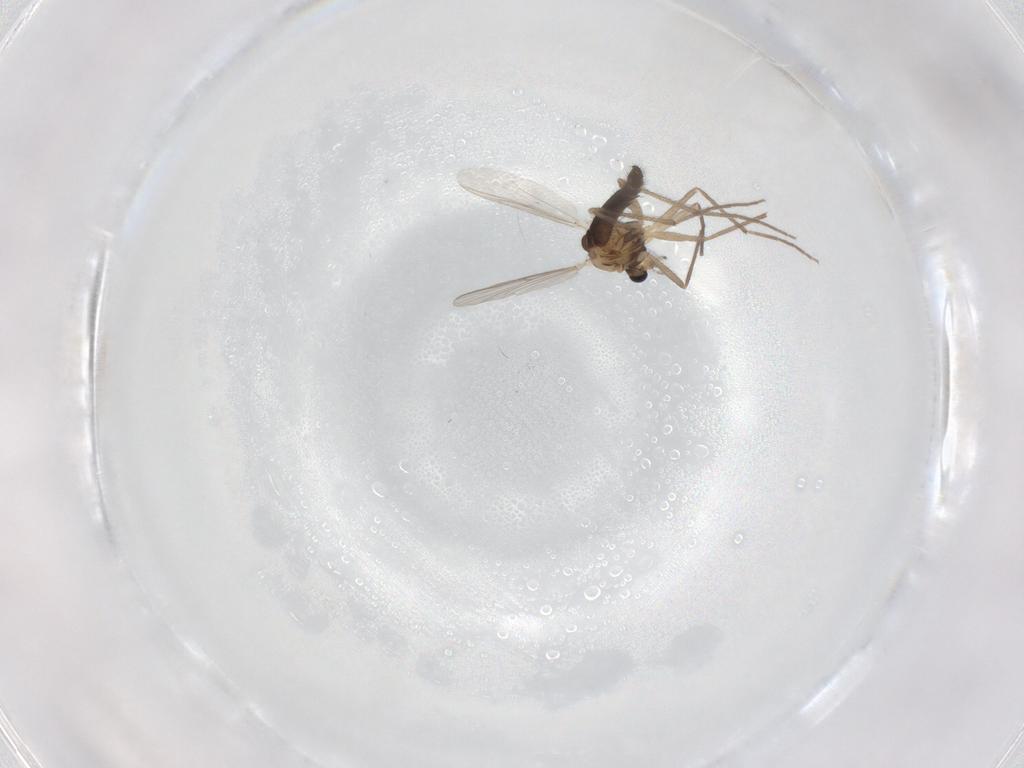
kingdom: Animalia
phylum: Arthropoda
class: Insecta
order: Diptera
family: Chironomidae
